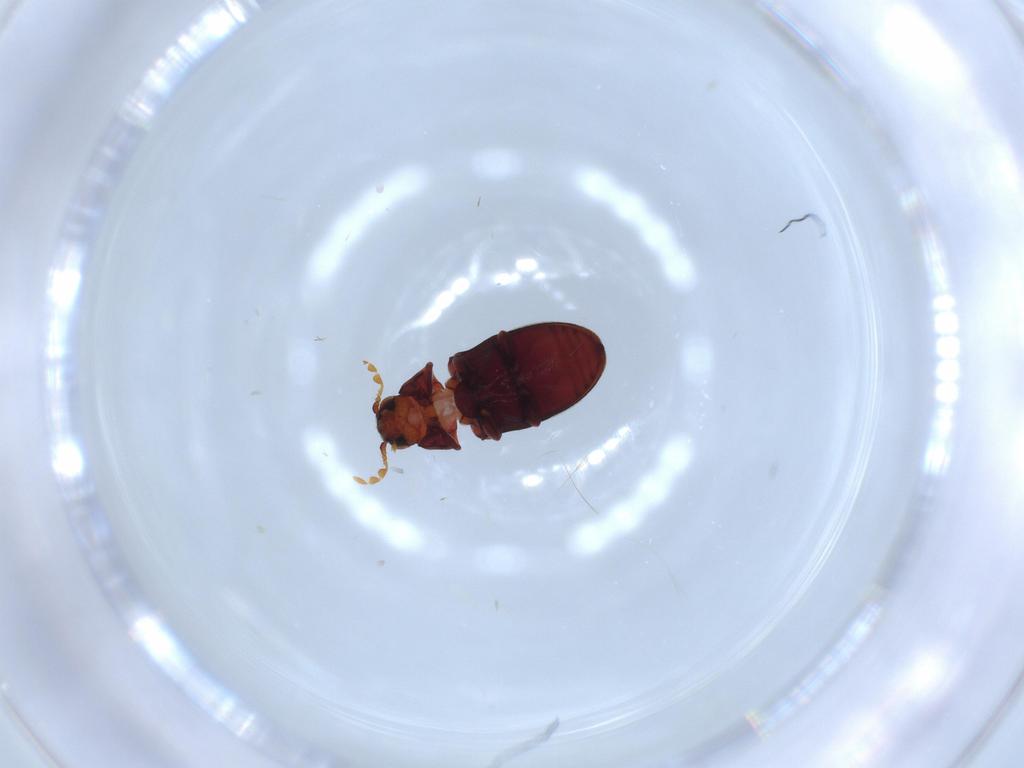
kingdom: Animalia
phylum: Arthropoda
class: Insecta
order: Coleoptera
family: Ptinidae
